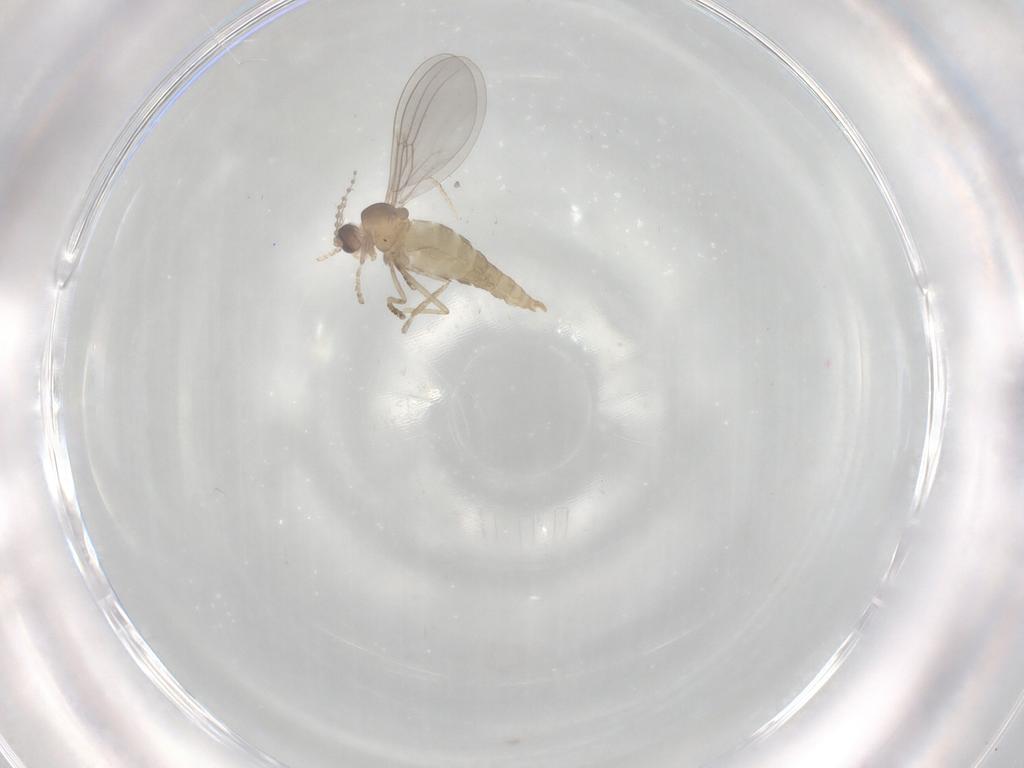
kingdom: Animalia
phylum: Arthropoda
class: Insecta
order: Diptera
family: Cecidomyiidae
